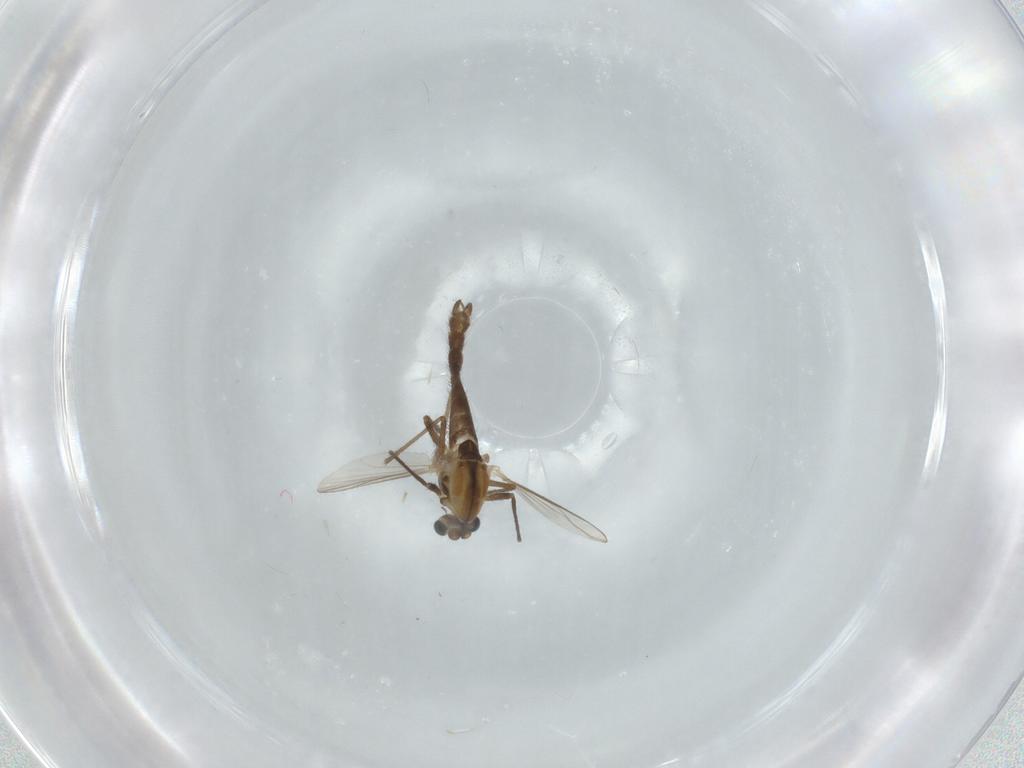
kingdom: Animalia
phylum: Arthropoda
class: Insecta
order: Diptera
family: Chironomidae
